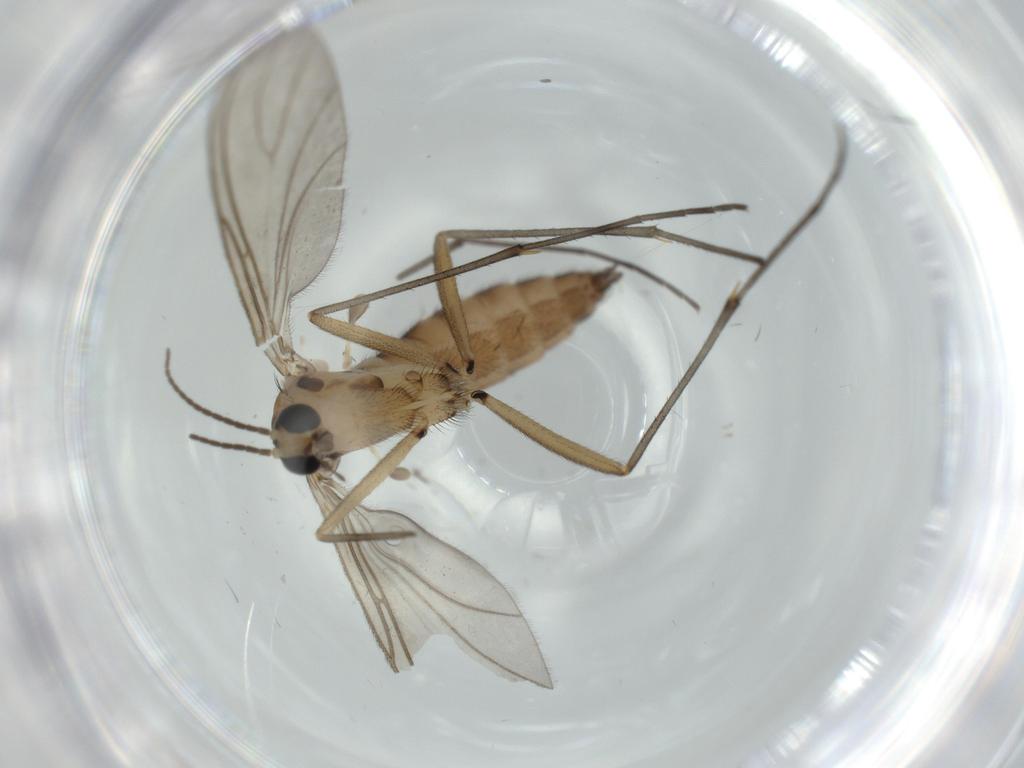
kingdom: Animalia
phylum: Arthropoda
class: Insecta
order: Diptera
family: Sciaridae
